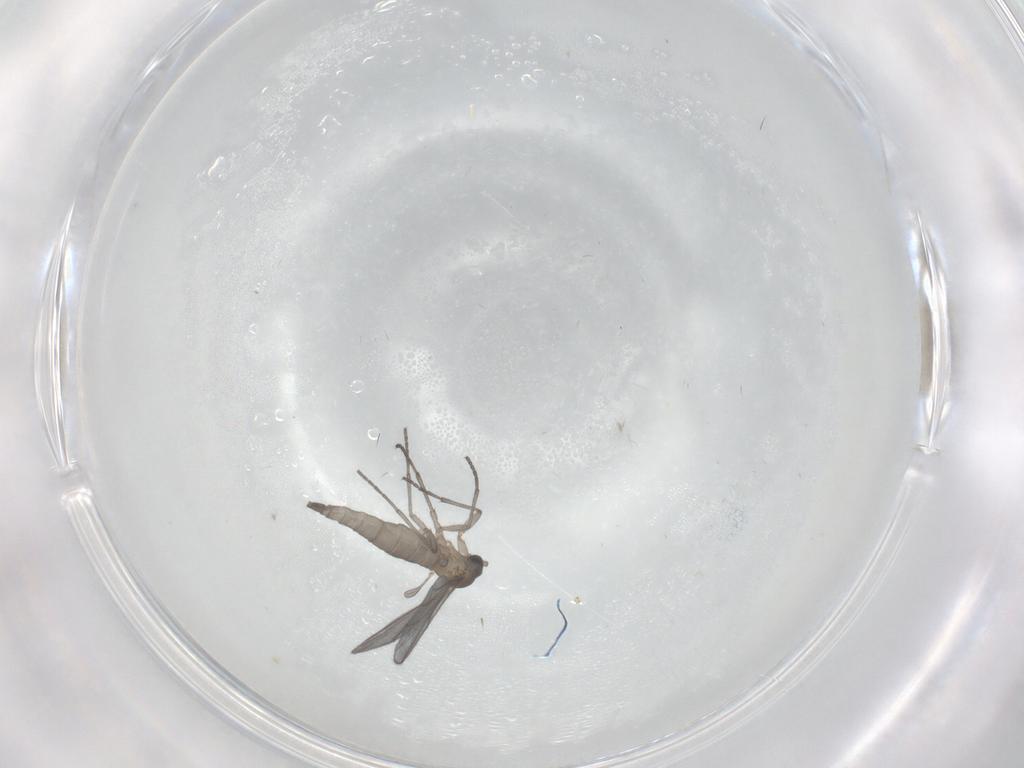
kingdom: Animalia
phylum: Arthropoda
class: Insecta
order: Diptera
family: Sciaridae
